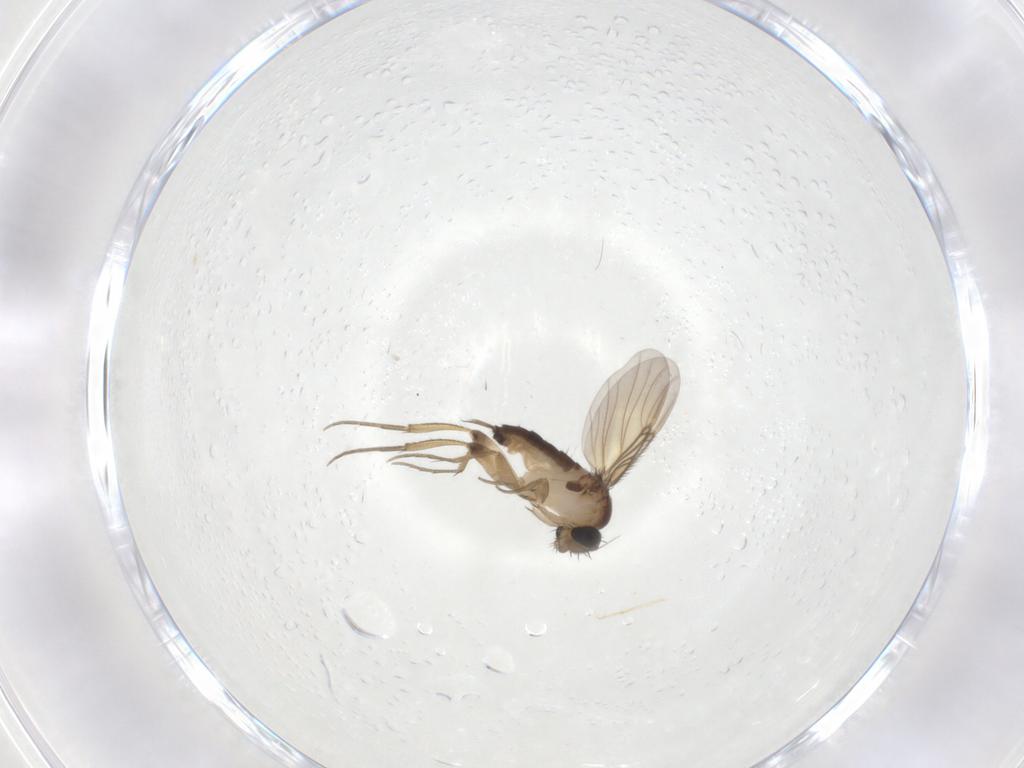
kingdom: Animalia
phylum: Arthropoda
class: Insecta
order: Diptera
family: Phoridae
